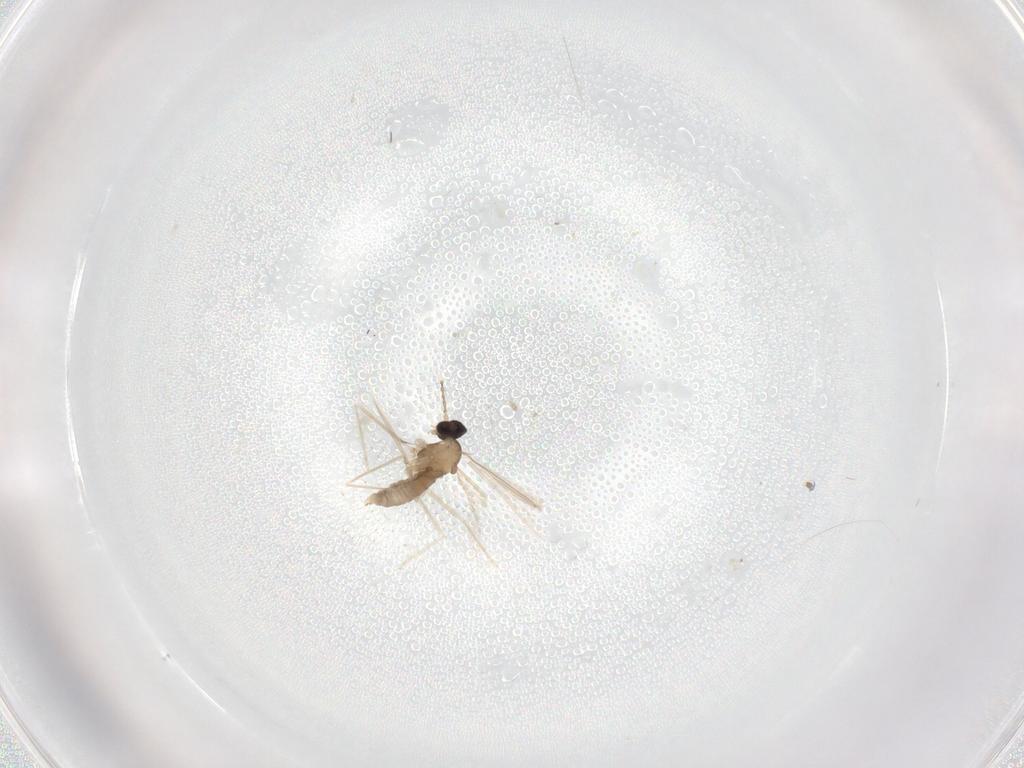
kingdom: Animalia
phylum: Arthropoda
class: Insecta
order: Diptera
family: Cecidomyiidae
